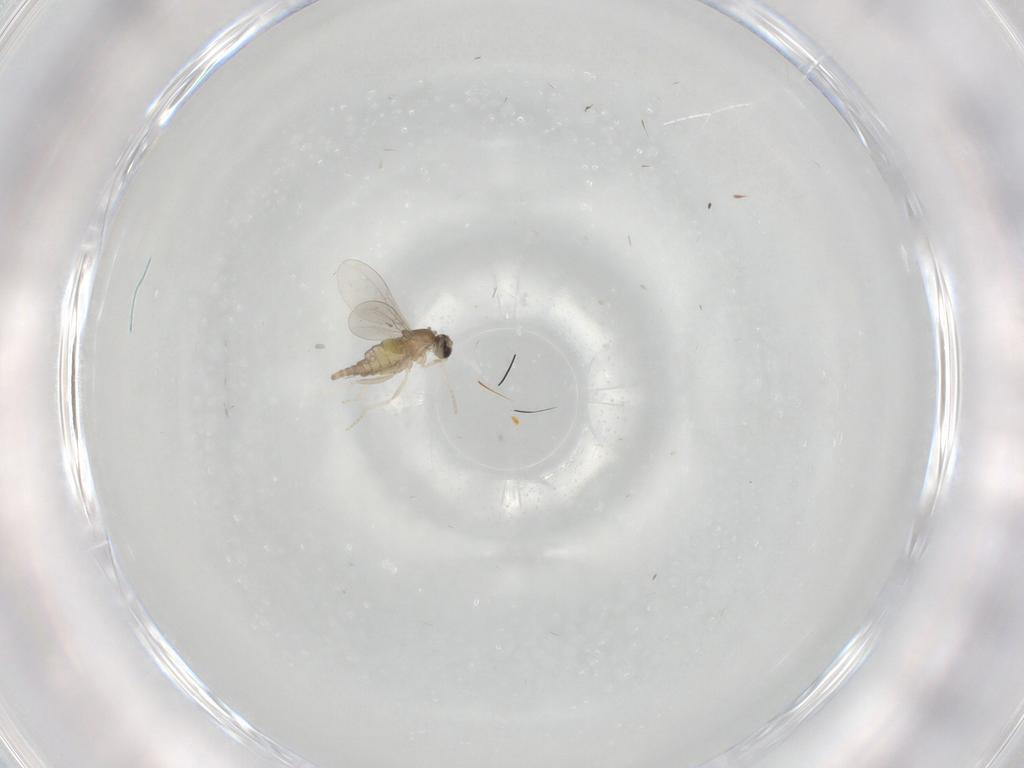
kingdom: Animalia
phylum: Arthropoda
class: Insecta
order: Diptera
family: Cecidomyiidae
